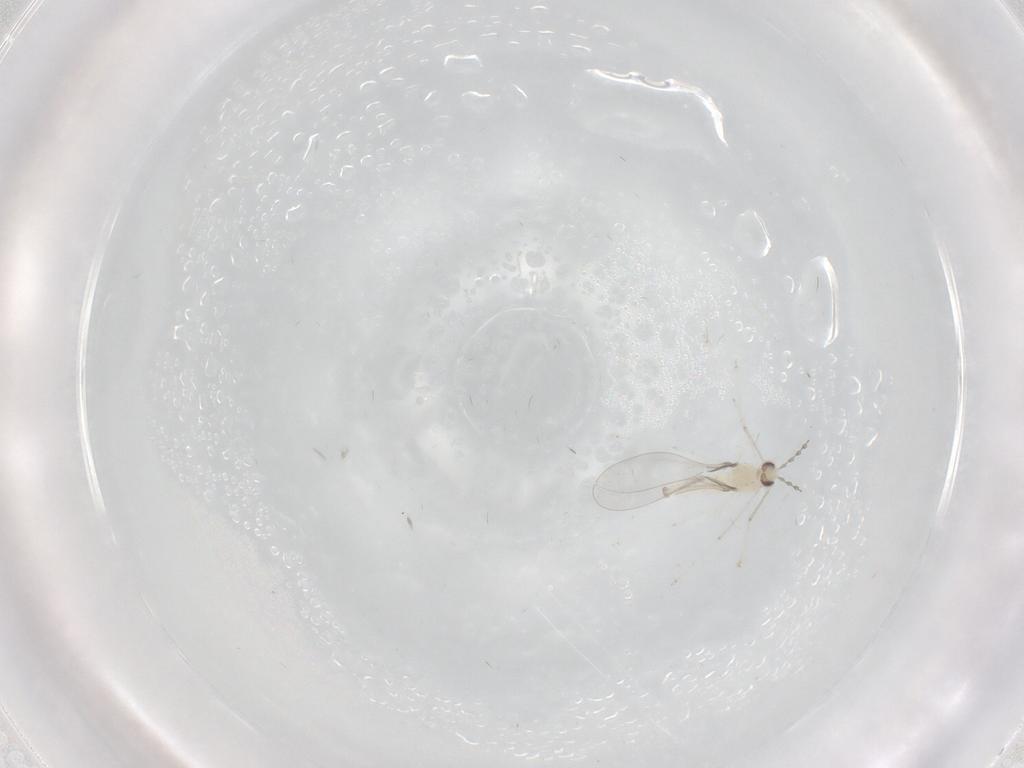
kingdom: Animalia
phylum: Arthropoda
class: Insecta
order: Diptera
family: Cecidomyiidae
